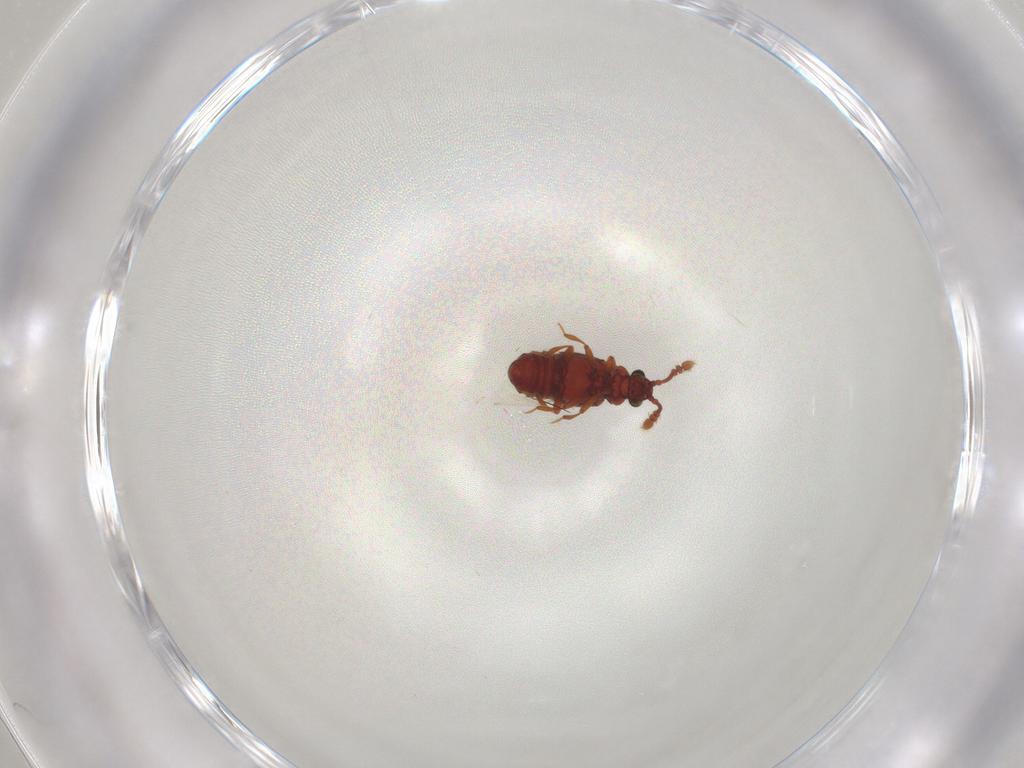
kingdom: Animalia
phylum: Arthropoda
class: Insecta
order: Coleoptera
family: Staphylinidae
